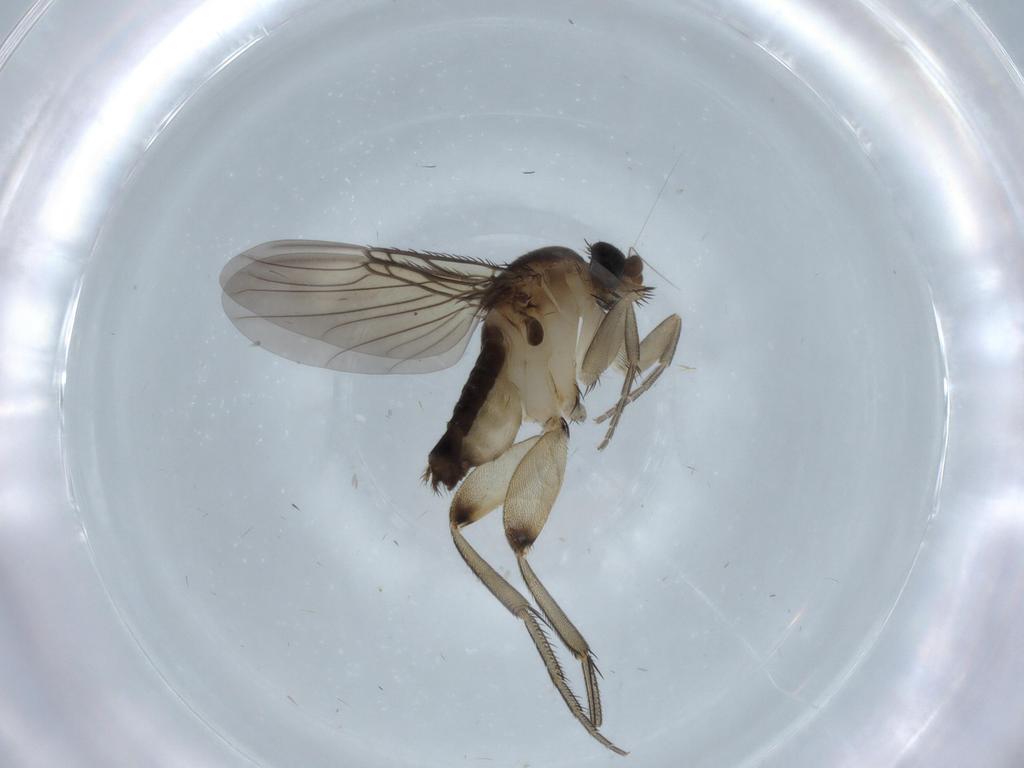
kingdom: Animalia
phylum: Arthropoda
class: Insecta
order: Diptera
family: Phoridae
